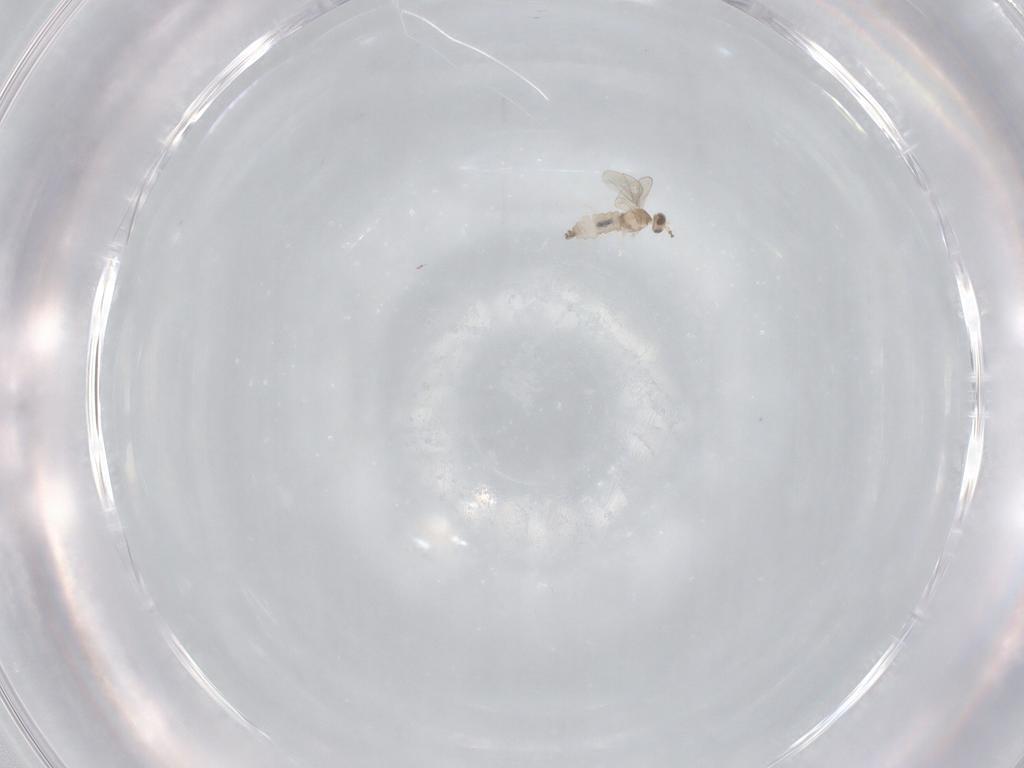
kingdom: Animalia
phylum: Arthropoda
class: Insecta
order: Diptera
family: Cecidomyiidae
